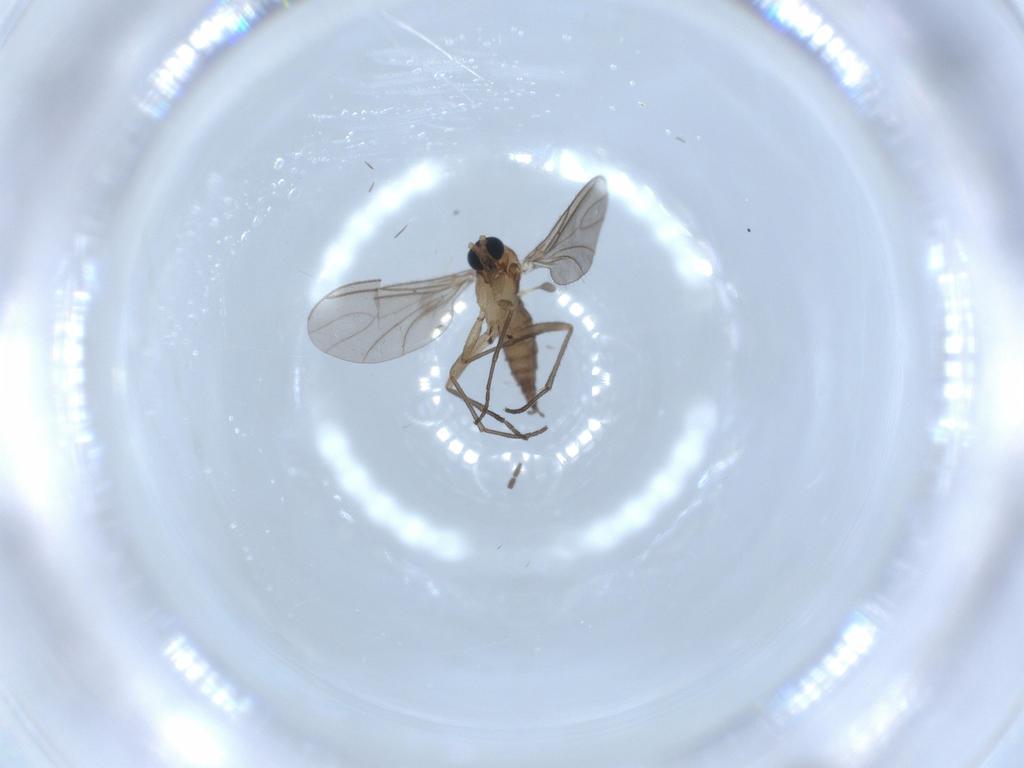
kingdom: Animalia
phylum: Arthropoda
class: Insecta
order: Diptera
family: Sciaridae
